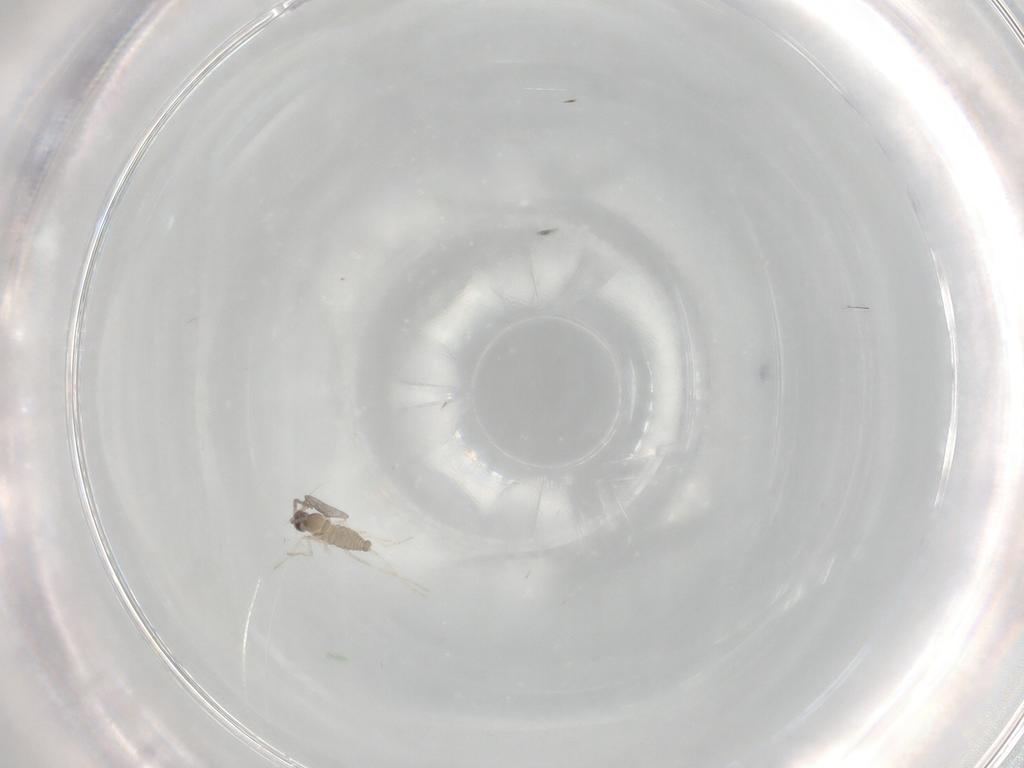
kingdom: Animalia
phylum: Arthropoda
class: Insecta
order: Diptera
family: Cecidomyiidae
